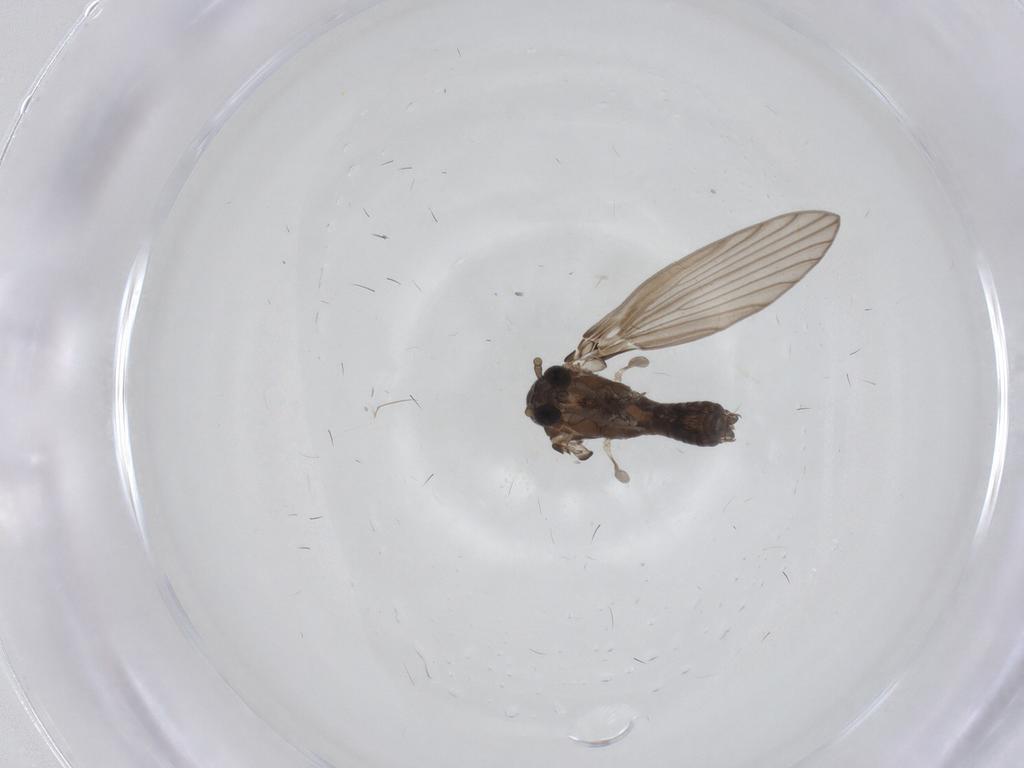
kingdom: Animalia
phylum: Arthropoda
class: Insecta
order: Diptera
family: Psychodidae
